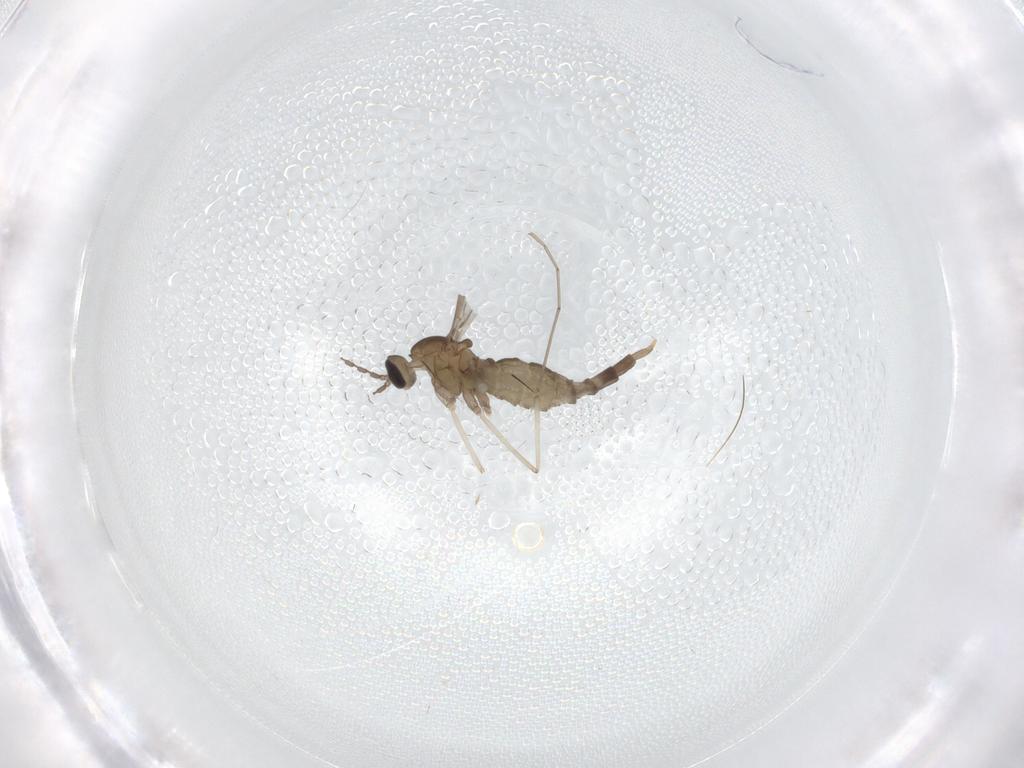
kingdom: Animalia
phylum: Arthropoda
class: Insecta
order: Diptera
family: Cecidomyiidae
